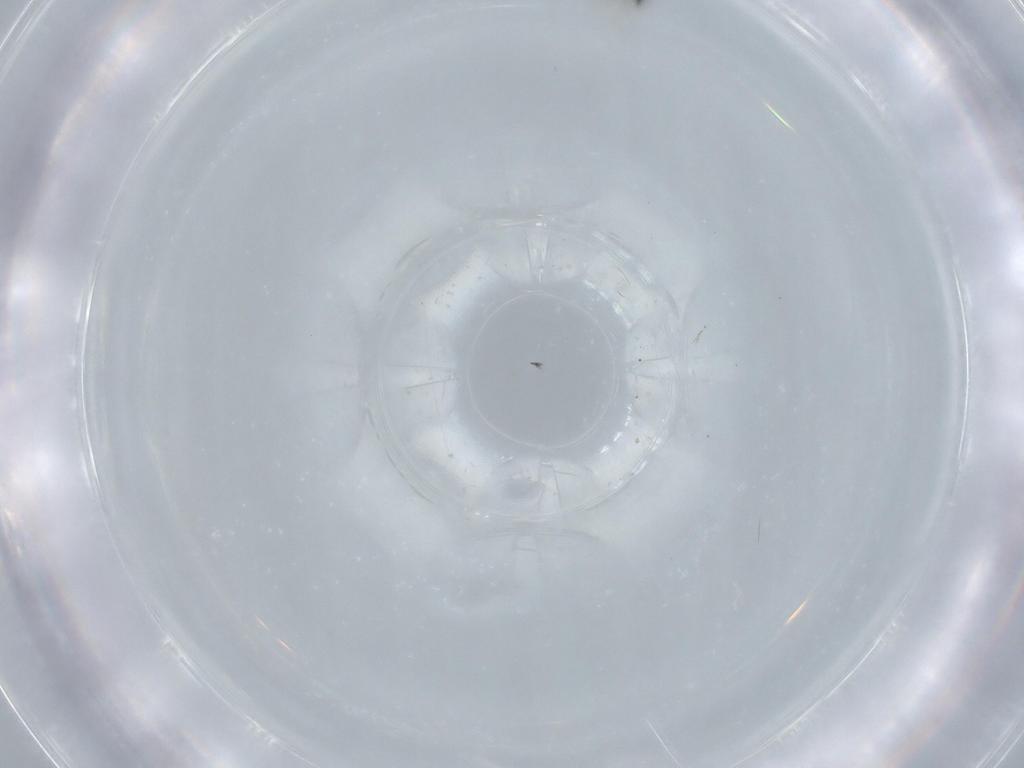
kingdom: Animalia
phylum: Arthropoda
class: Insecta
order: Hymenoptera
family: Platygastridae
